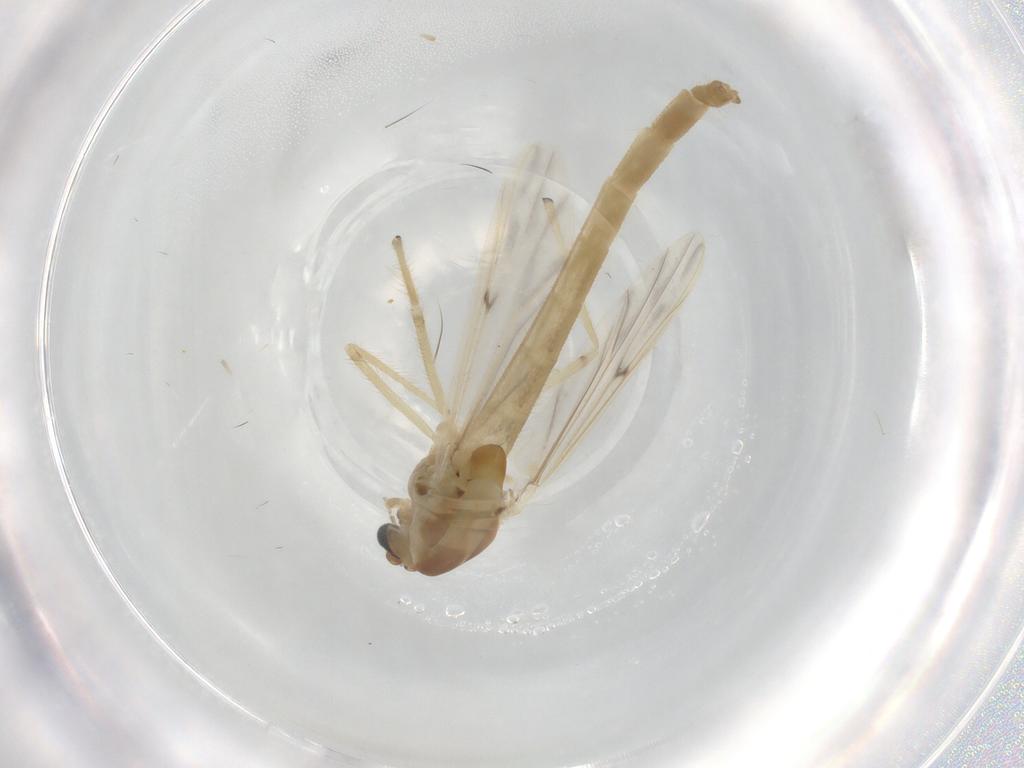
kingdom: Animalia
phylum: Arthropoda
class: Insecta
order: Diptera
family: Chironomidae
